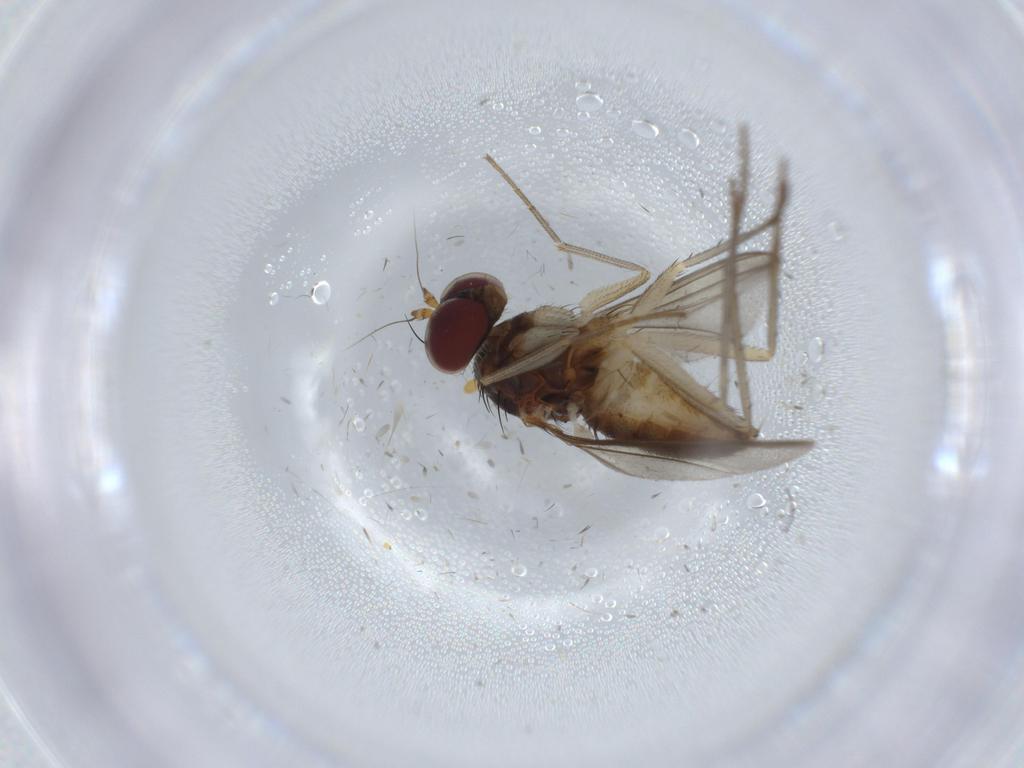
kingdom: Animalia
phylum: Arthropoda
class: Insecta
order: Diptera
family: Dolichopodidae
